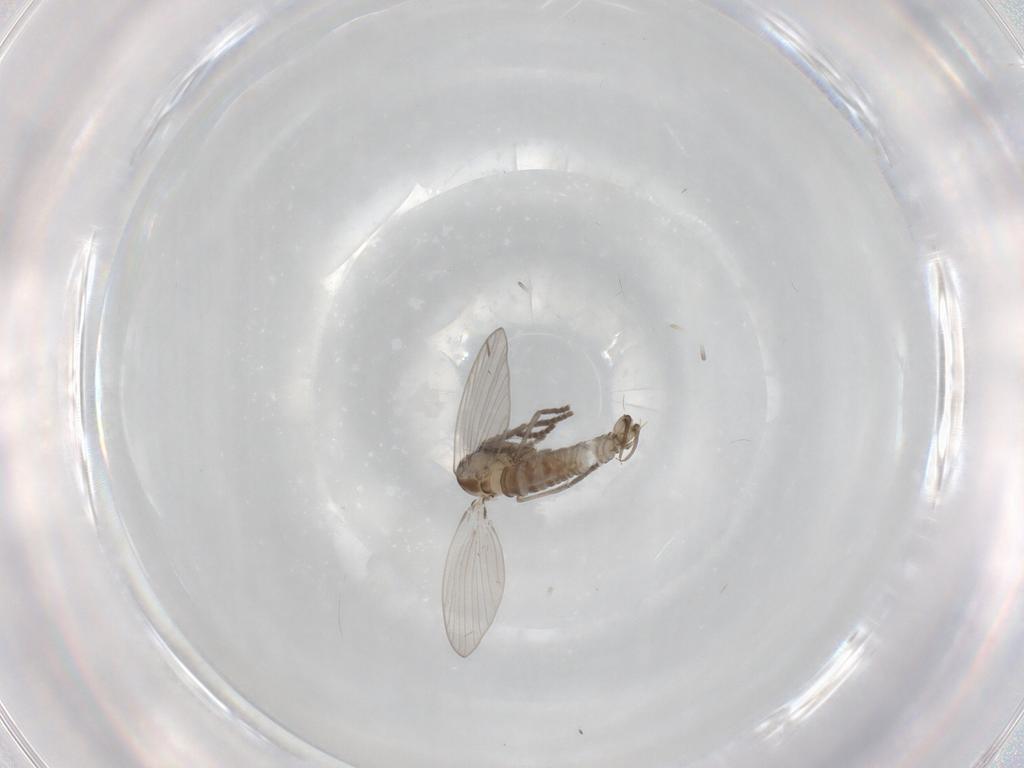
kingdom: Animalia
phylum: Arthropoda
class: Insecta
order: Diptera
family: Psychodidae
